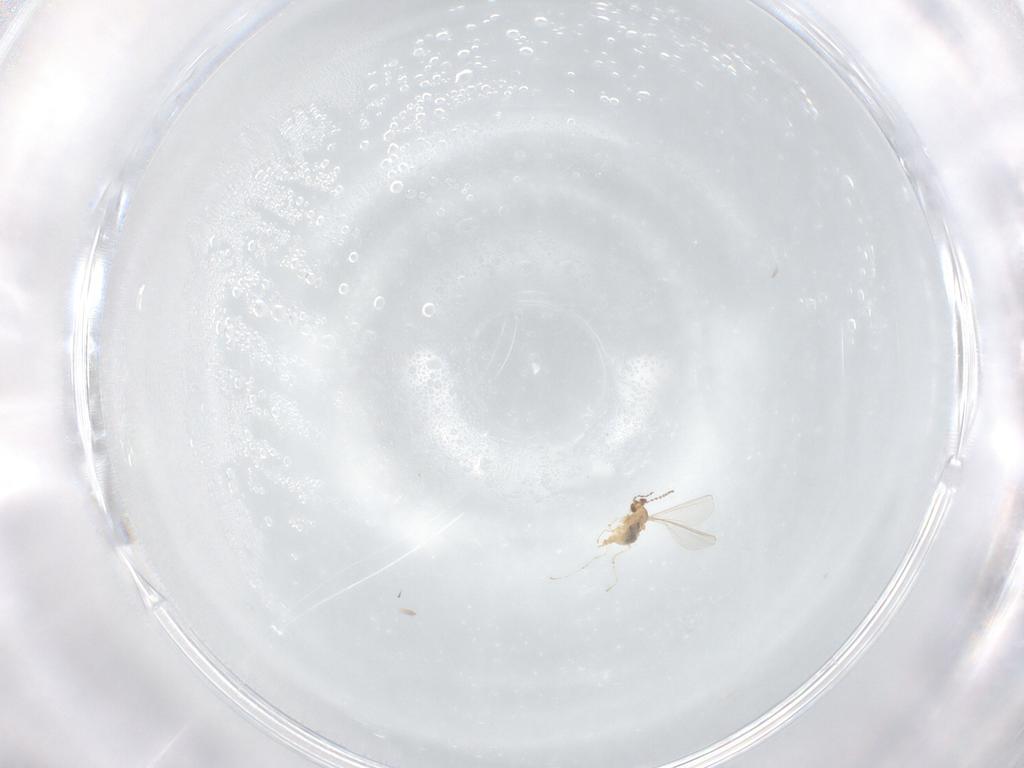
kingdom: Animalia
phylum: Arthropoda
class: Insecta
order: Diptera
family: Cecidomyiidae
